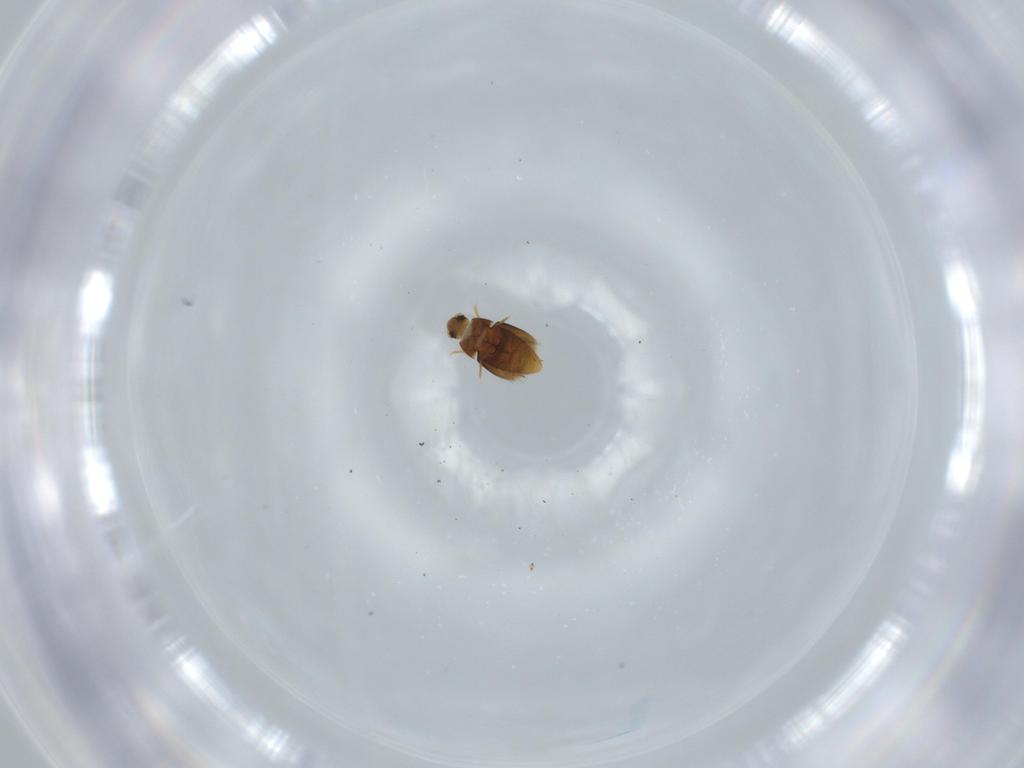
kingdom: Animalia
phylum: Arthropoda
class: Insecta
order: Coleoptera
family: Ptiliidae
